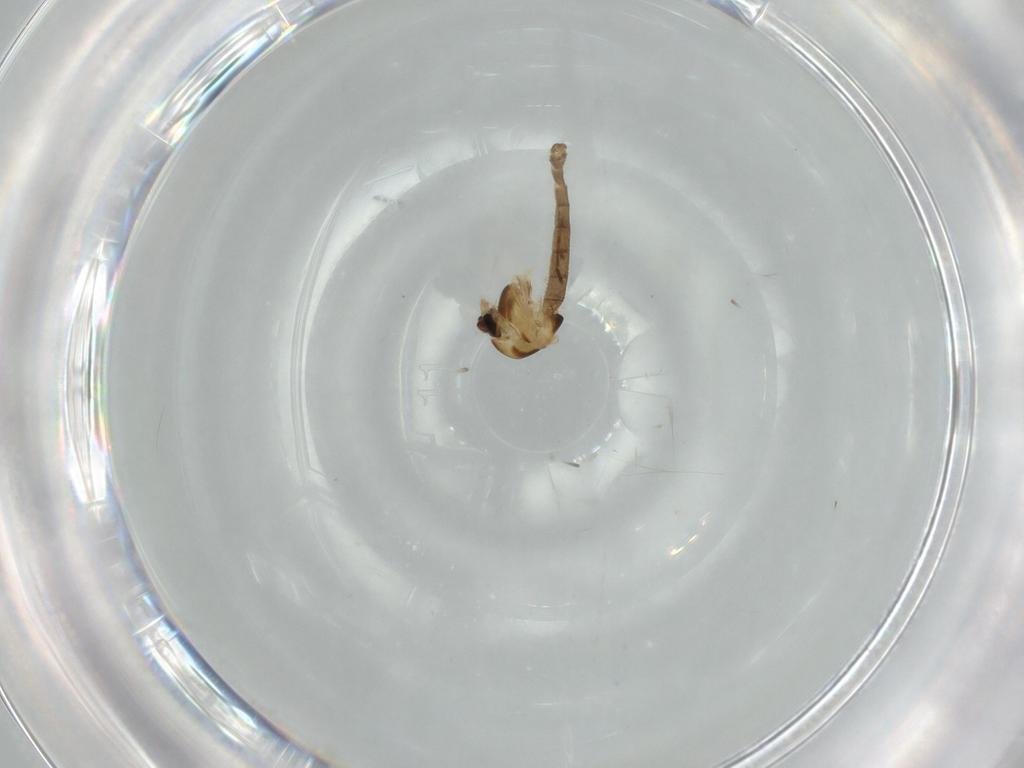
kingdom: Animalia
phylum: Arthropoda
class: Insecta
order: Diptera
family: Chironomidae
